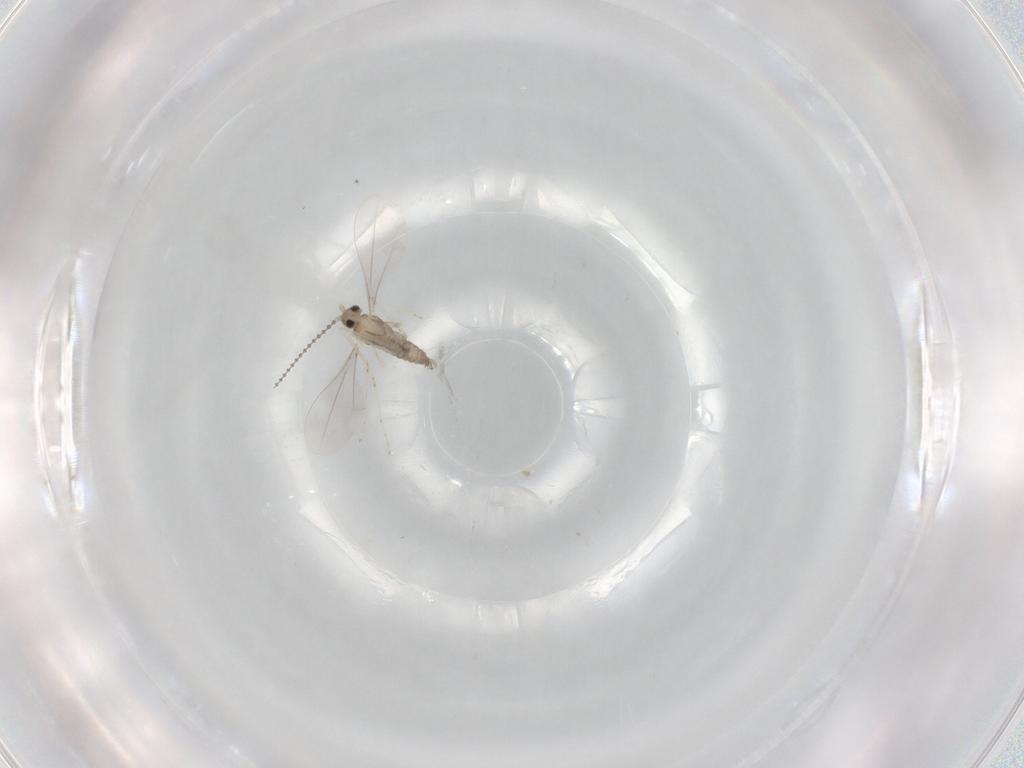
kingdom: Animalia
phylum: Arthropoda
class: Insecta
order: Diptera
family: Cecidomyiidae
